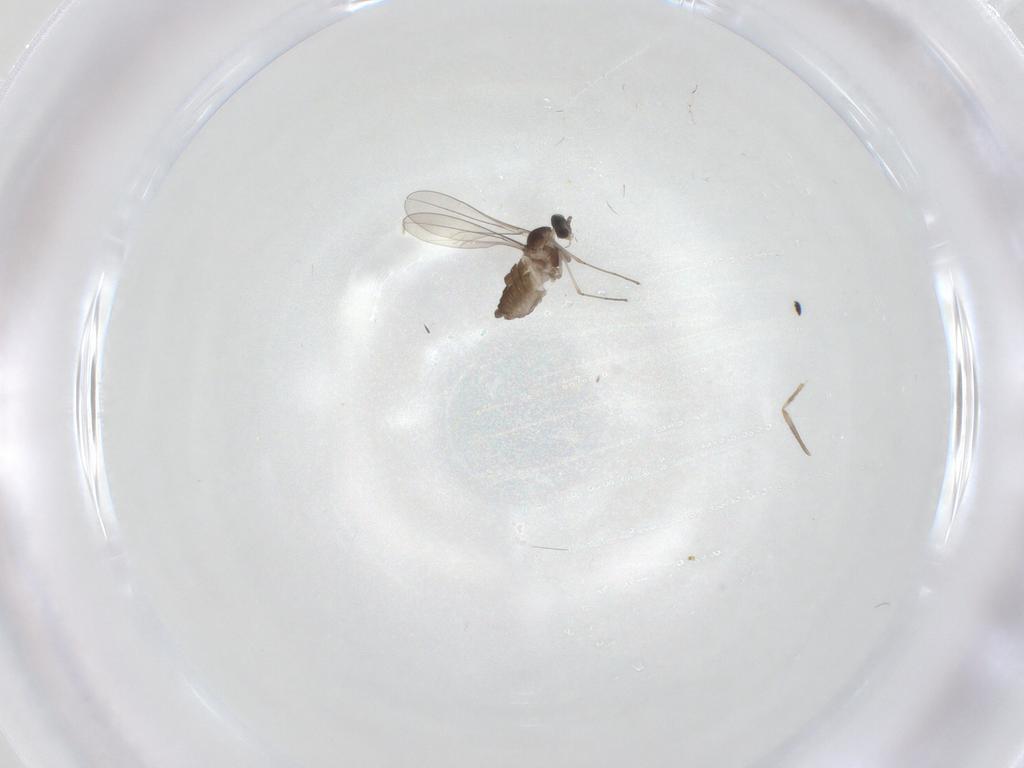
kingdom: Animalia
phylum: Arthropoda
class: Insecta
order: Diptera
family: Cecidomyiidae
